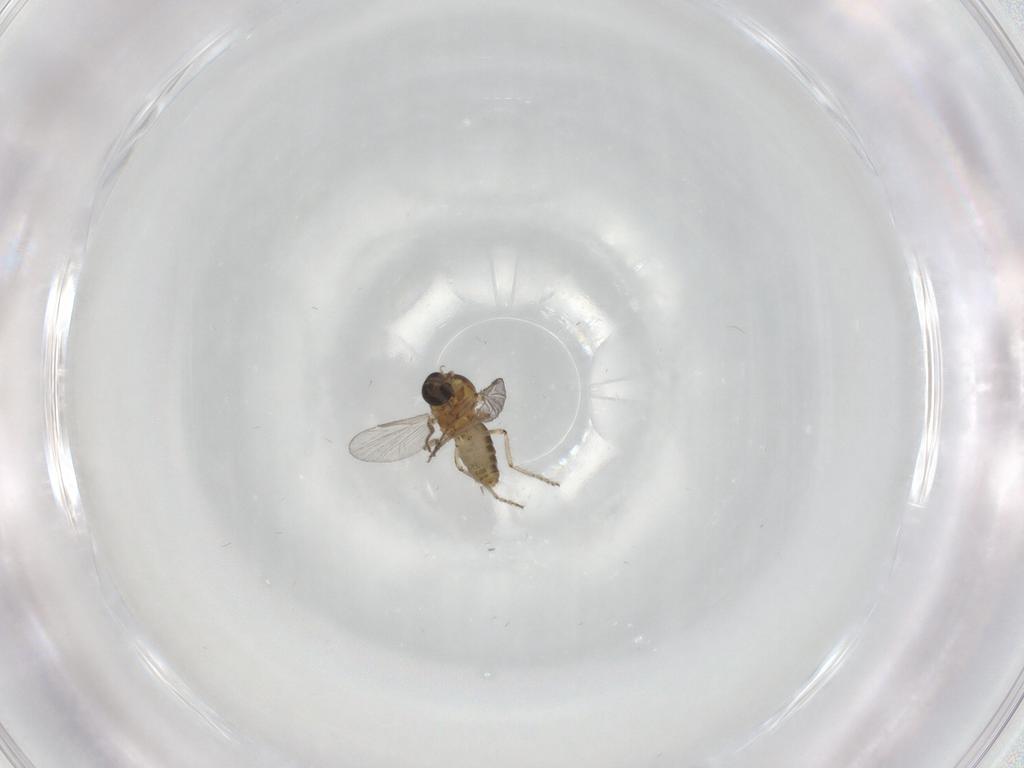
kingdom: Animalia
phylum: Arthropoda
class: Insecta
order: Diptera
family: Ceratopogonidae
